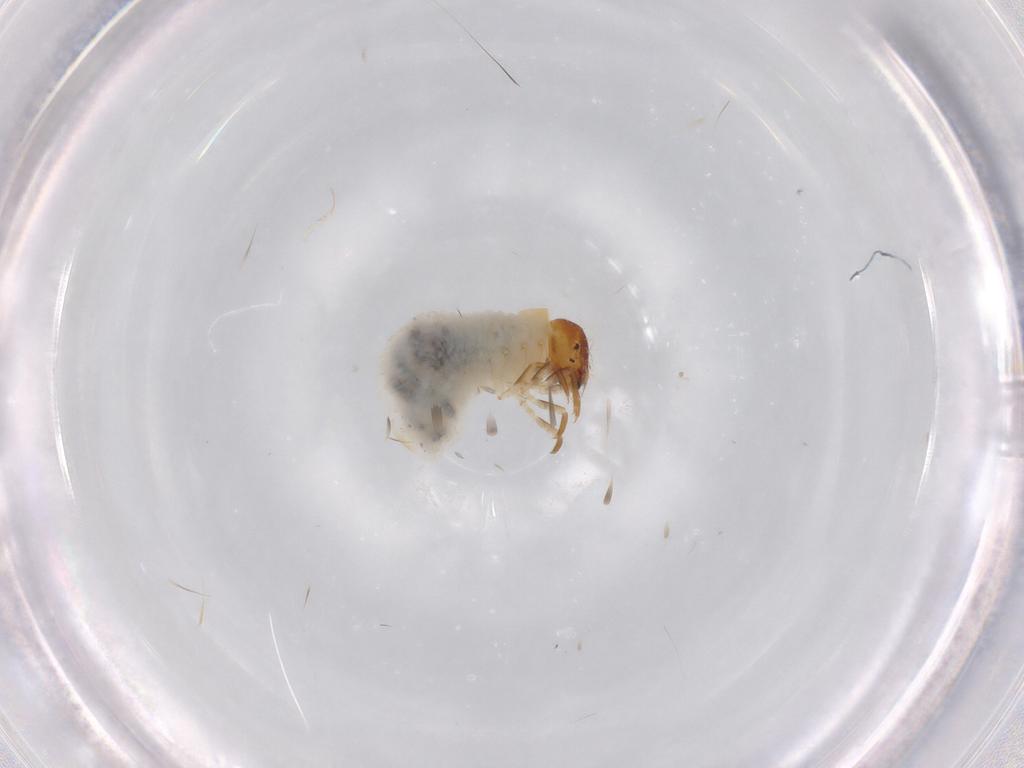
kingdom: Animalia
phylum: Arthropoda
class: Insecta
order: Coleoptera
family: Chrysomelidae
